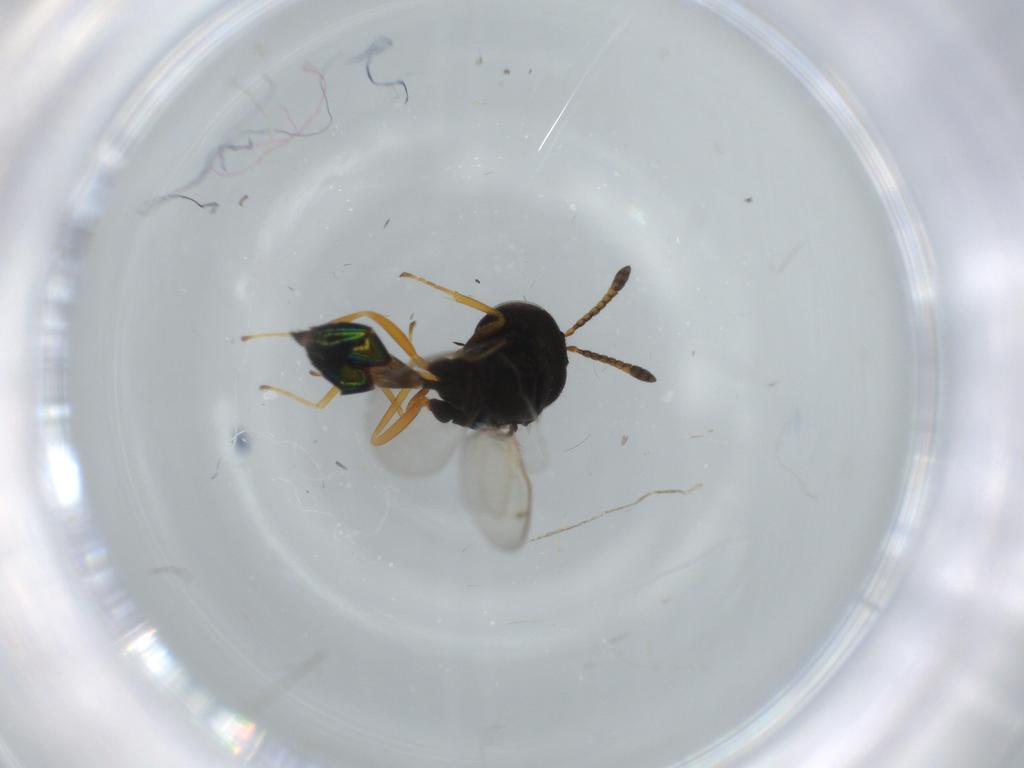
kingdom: Animalia
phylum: Arthropoda
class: Insecta
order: Hymenoptera
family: Pteromalidae
